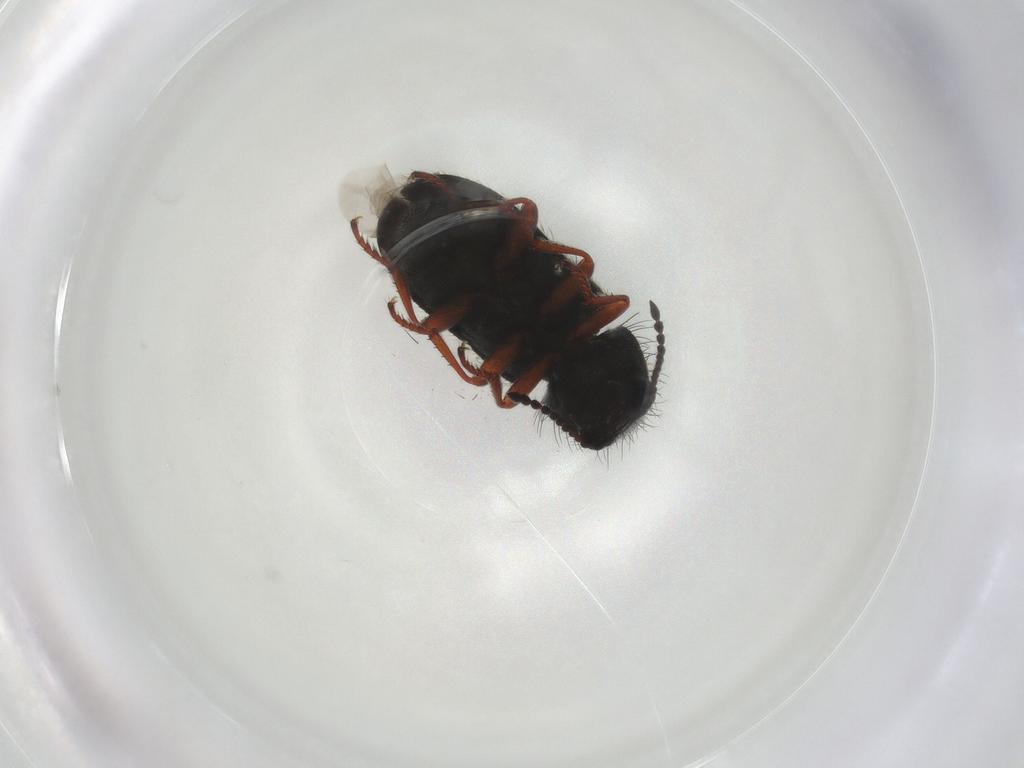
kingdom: Animalia
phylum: Arthropoda
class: Insecta
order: Coleoptera
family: Melyridae
